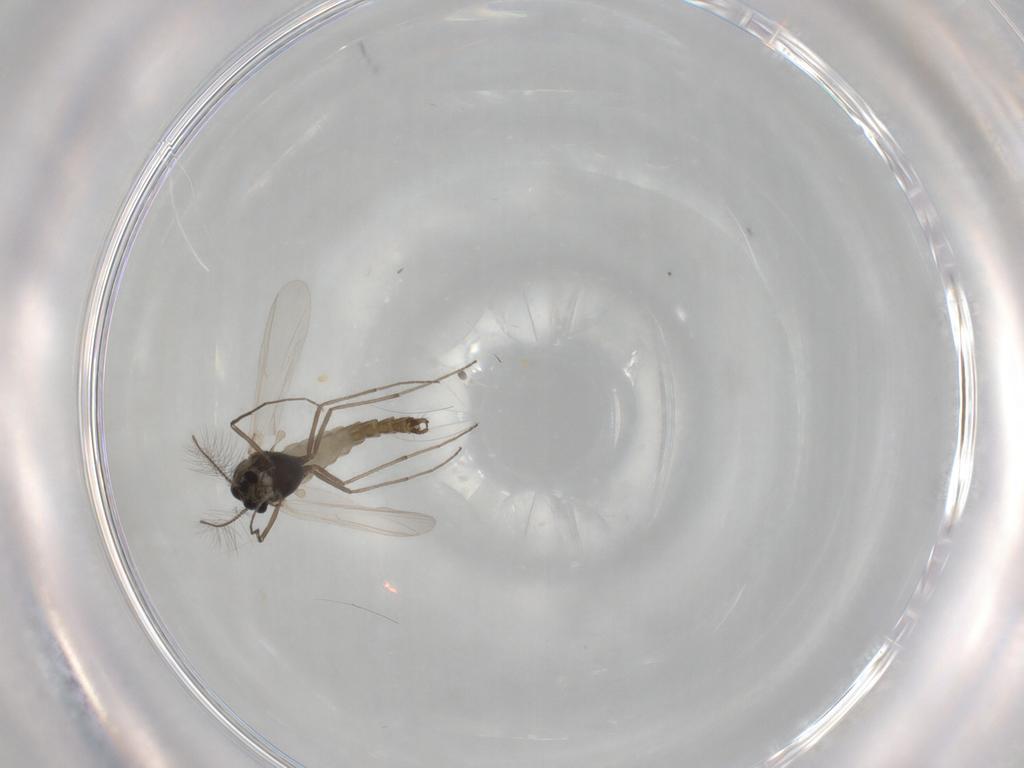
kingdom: Animalia
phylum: Arthropoda
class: Insecta
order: Diptera
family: Chironomidae
